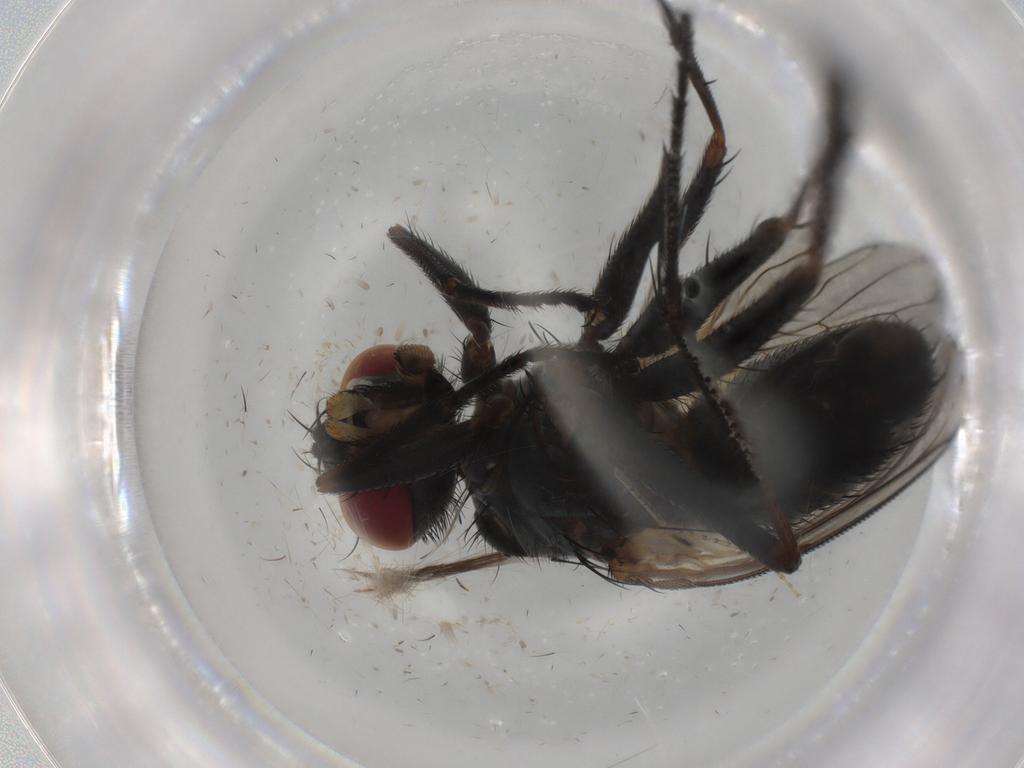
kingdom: Animalia
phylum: Arthropoda
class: Insecta
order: Diptera
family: Muscidae
